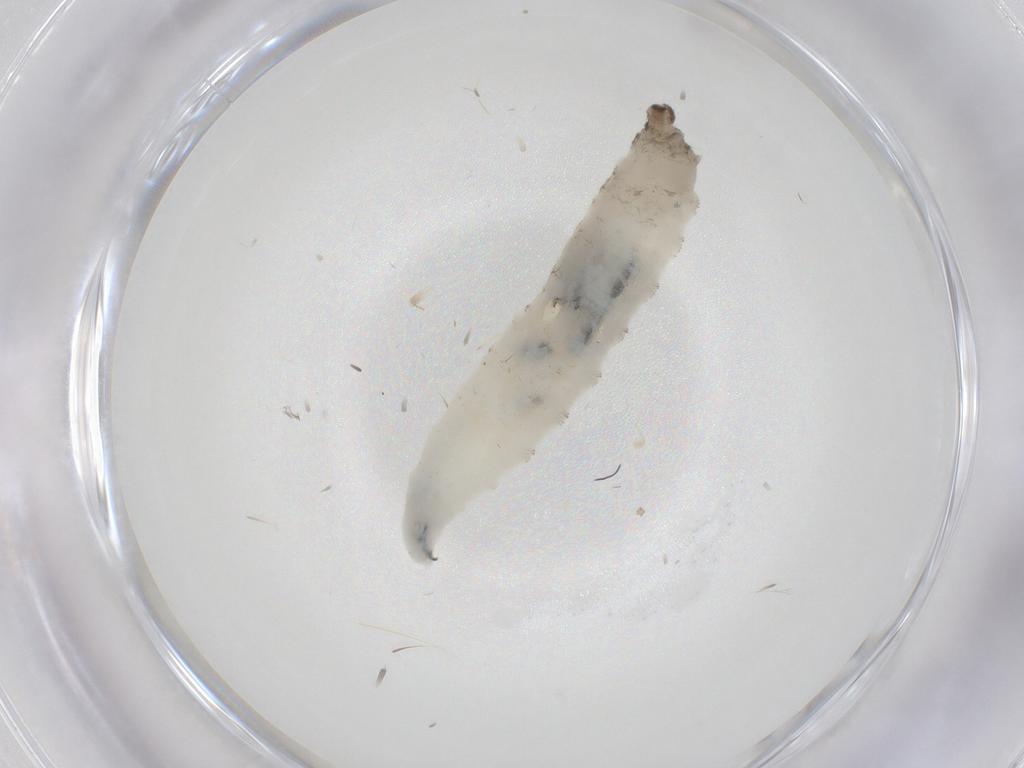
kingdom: Animalia
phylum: Arthropoda
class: Insecta
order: Diptera
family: Drosophilidae
